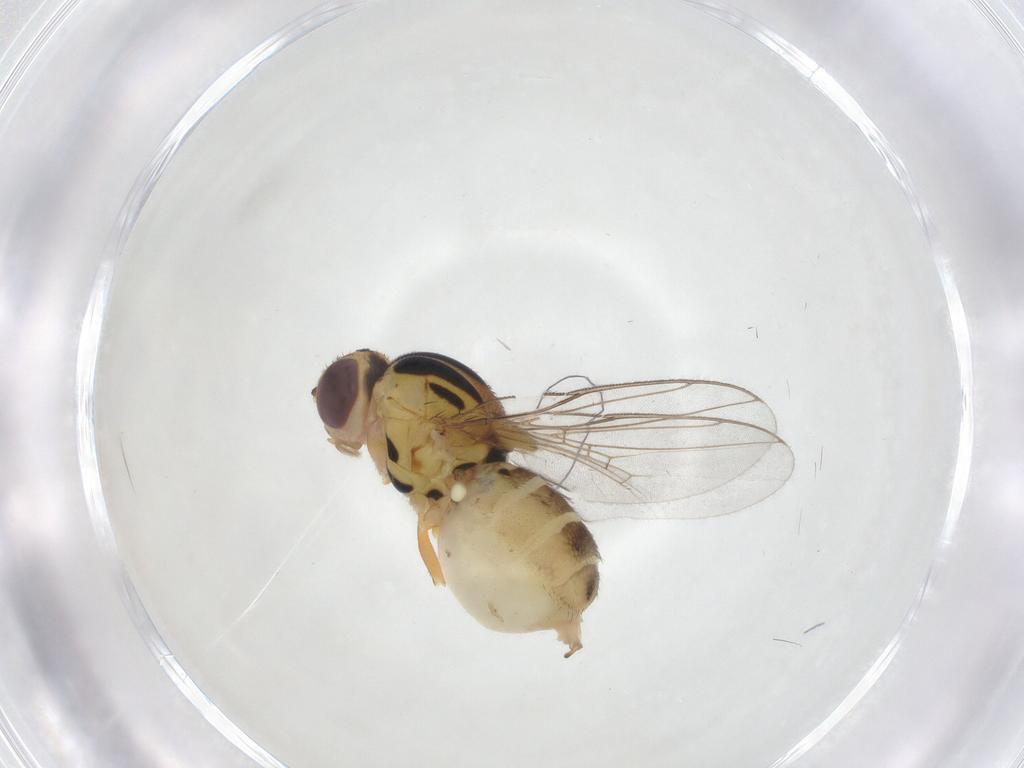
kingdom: Animalia
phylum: Arthropoda
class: Insecta
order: Diptera
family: Chloropidae
